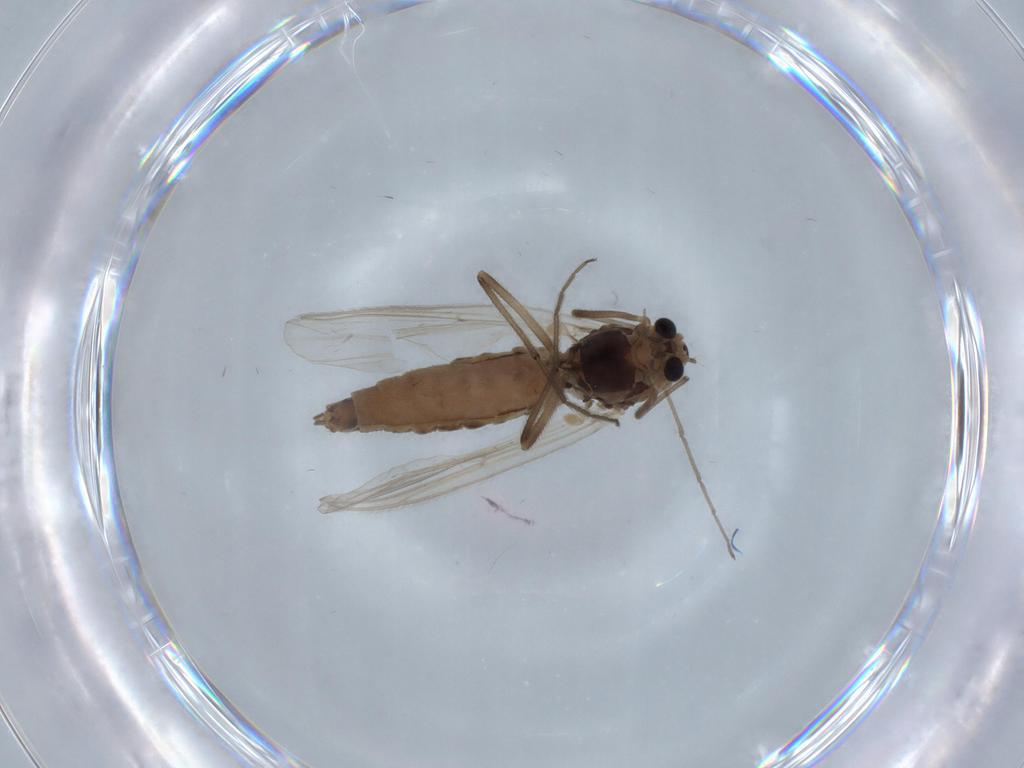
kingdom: Animalia
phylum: Arthropoda
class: Insecta
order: Diptera
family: Chironomidae
